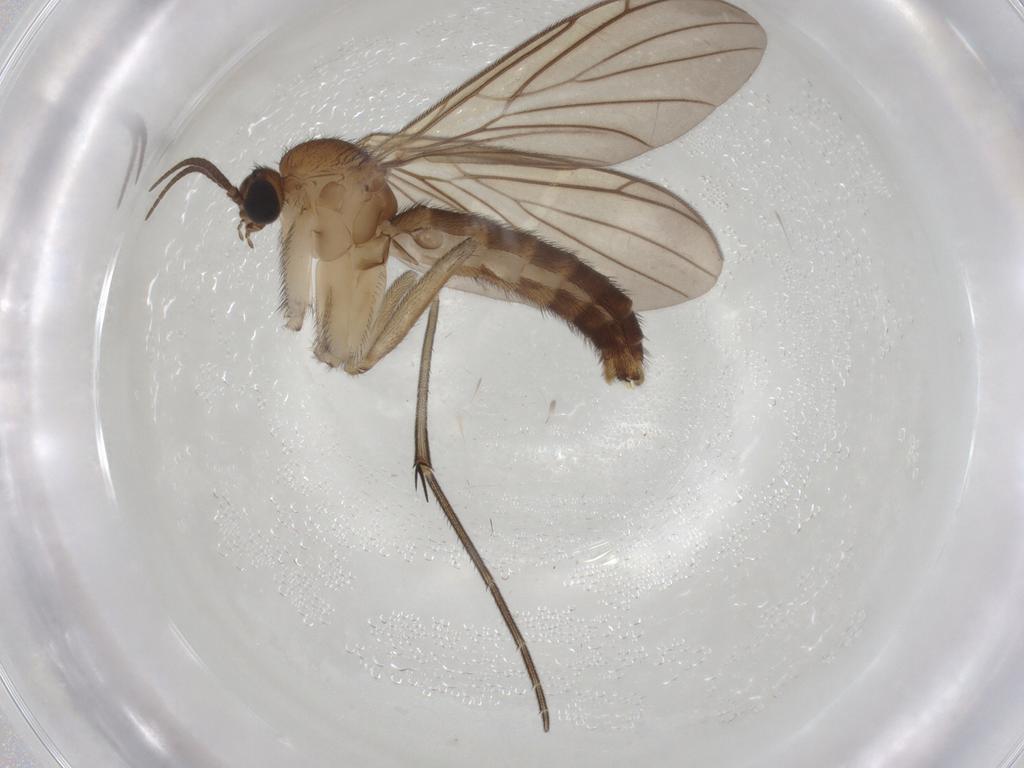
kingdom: Animalia
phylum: Arthropoda
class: Insecta
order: Diptera
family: Keroplatidae
